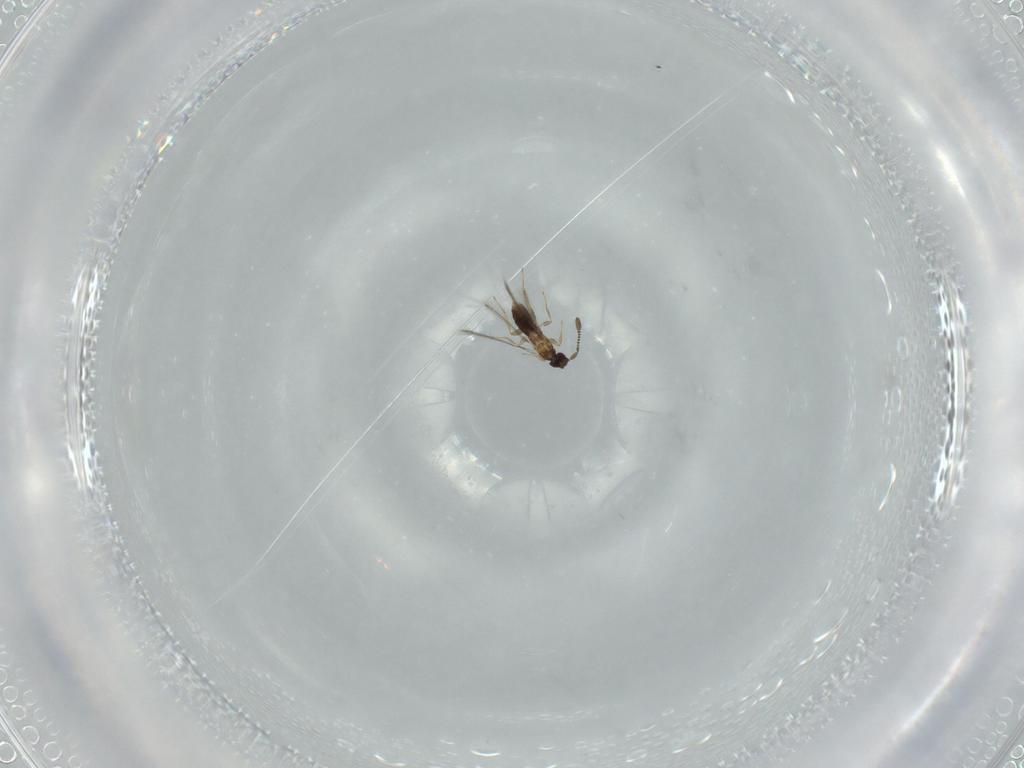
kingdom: Animalia
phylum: Arthropoda
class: Insecta
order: Hymenoptera
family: Mymaridae
